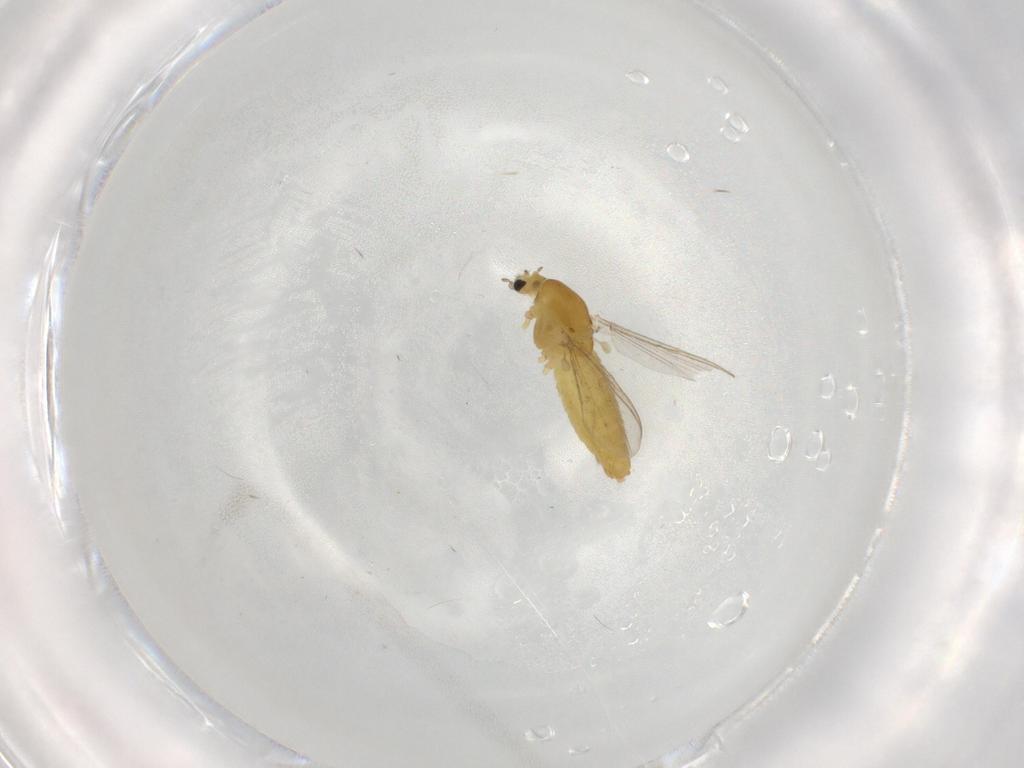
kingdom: Animalia
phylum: Arthropoda
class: Insecta
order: Diptera
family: Chironomidae
